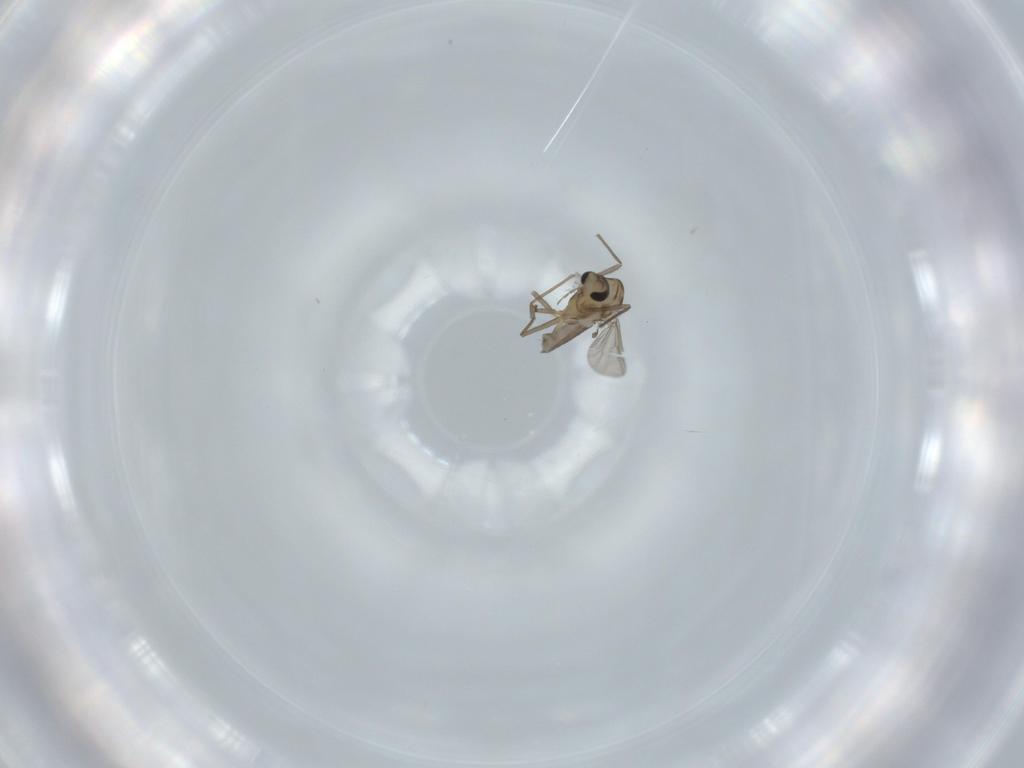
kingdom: Animalia
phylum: Arthropoda
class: Insecta
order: Diptera
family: Chironomidae
